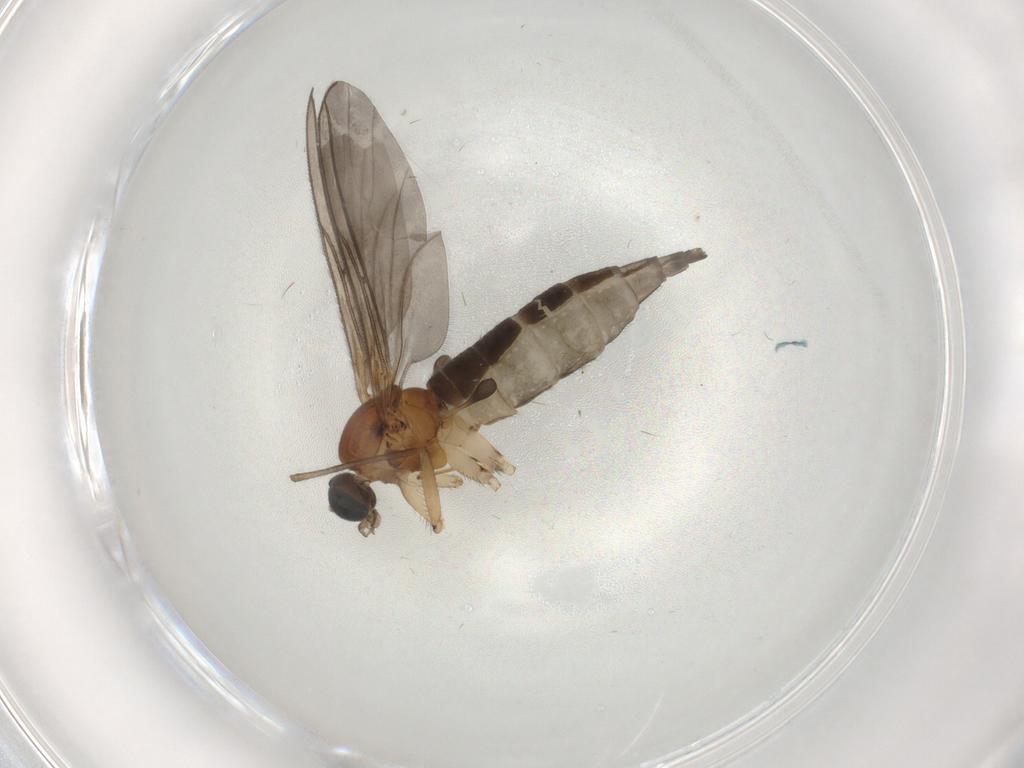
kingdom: Animalia
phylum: Arthropoda
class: Insecta
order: Diptera
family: Sciaridae
